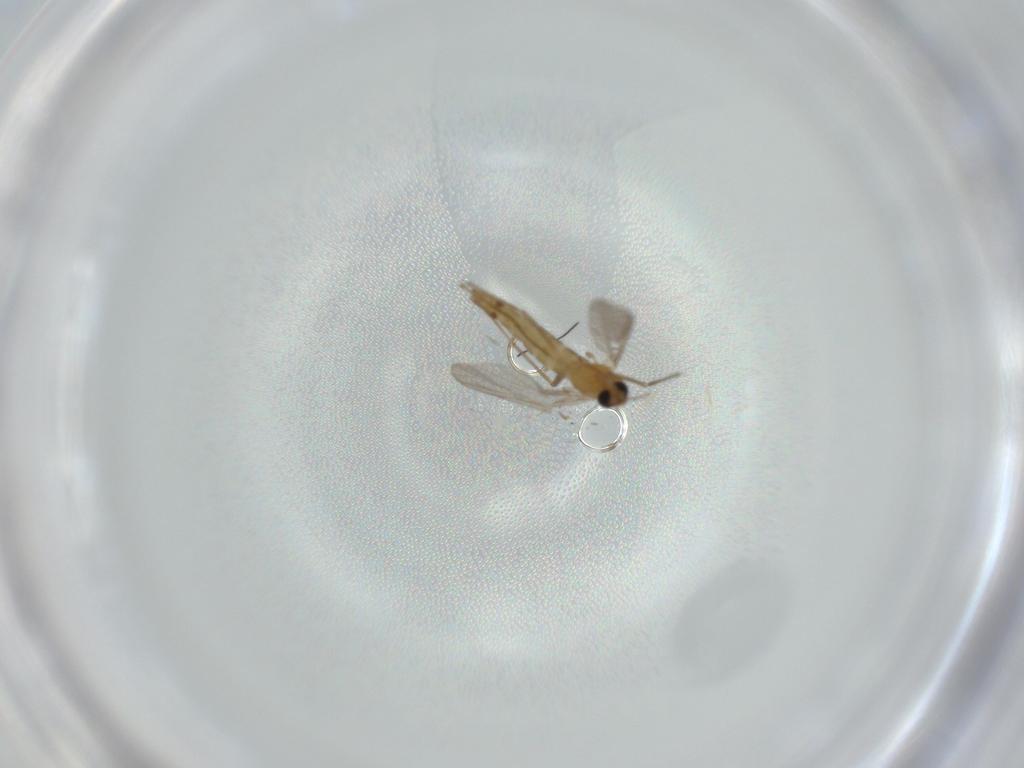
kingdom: Animalia
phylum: Arthropoda
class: Insecta
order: Diptera
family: Chironomidae
